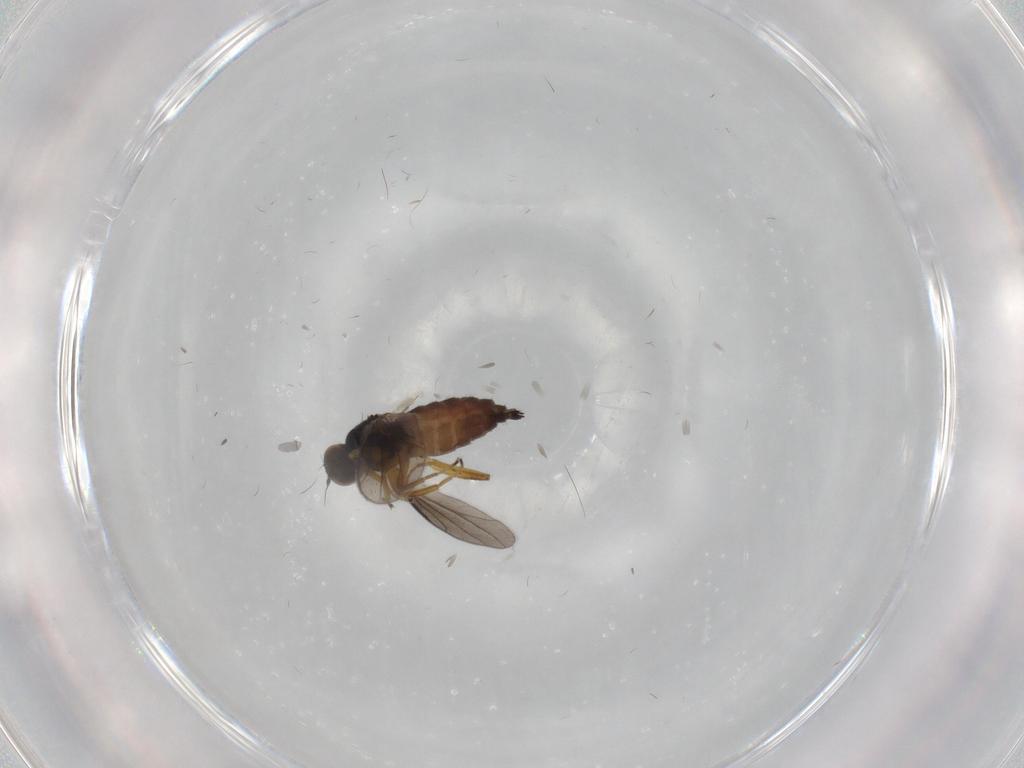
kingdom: Animalia
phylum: Arthropoda
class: Insecta
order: Diptera
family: Hybotidae
